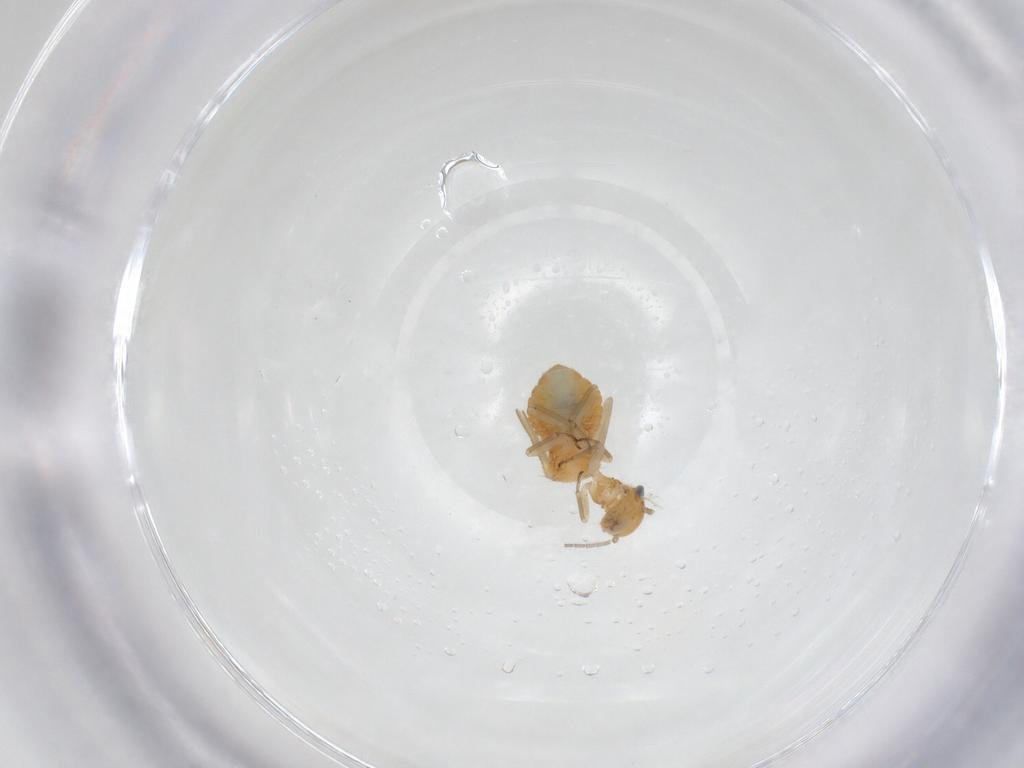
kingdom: Animalia
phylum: Arthropoda
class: Insecta
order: Psocodea
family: Ectopsocidae
